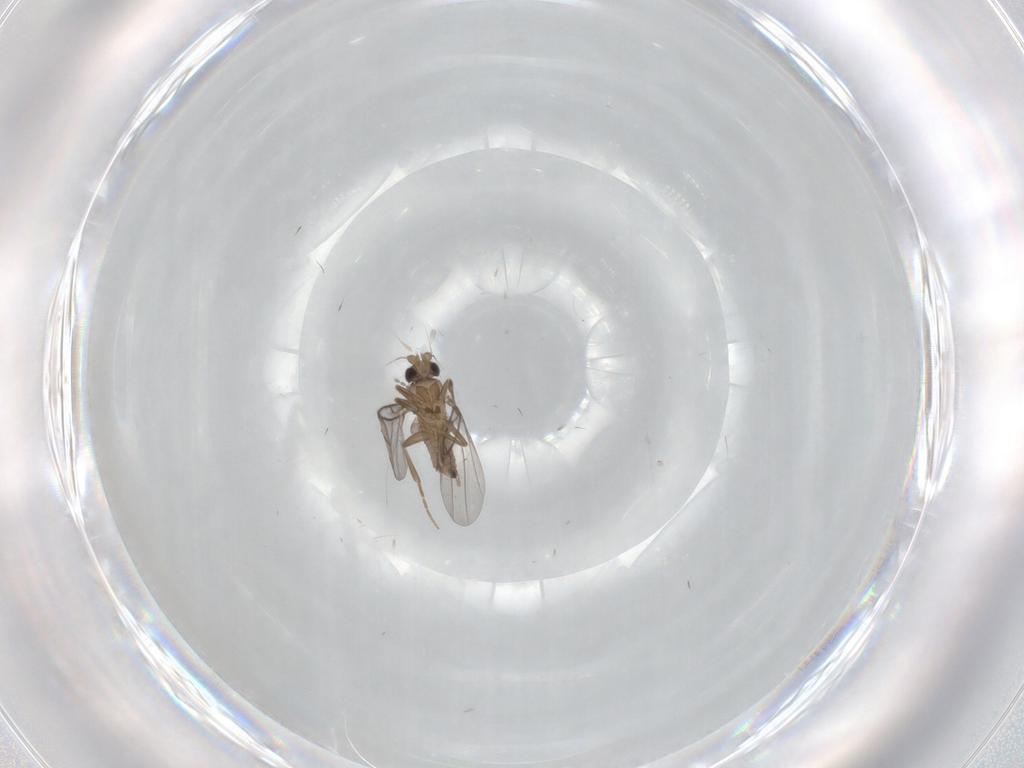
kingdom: Animalia
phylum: Arthropoda
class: Insecta
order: Diptera
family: Cecidomyiidae
